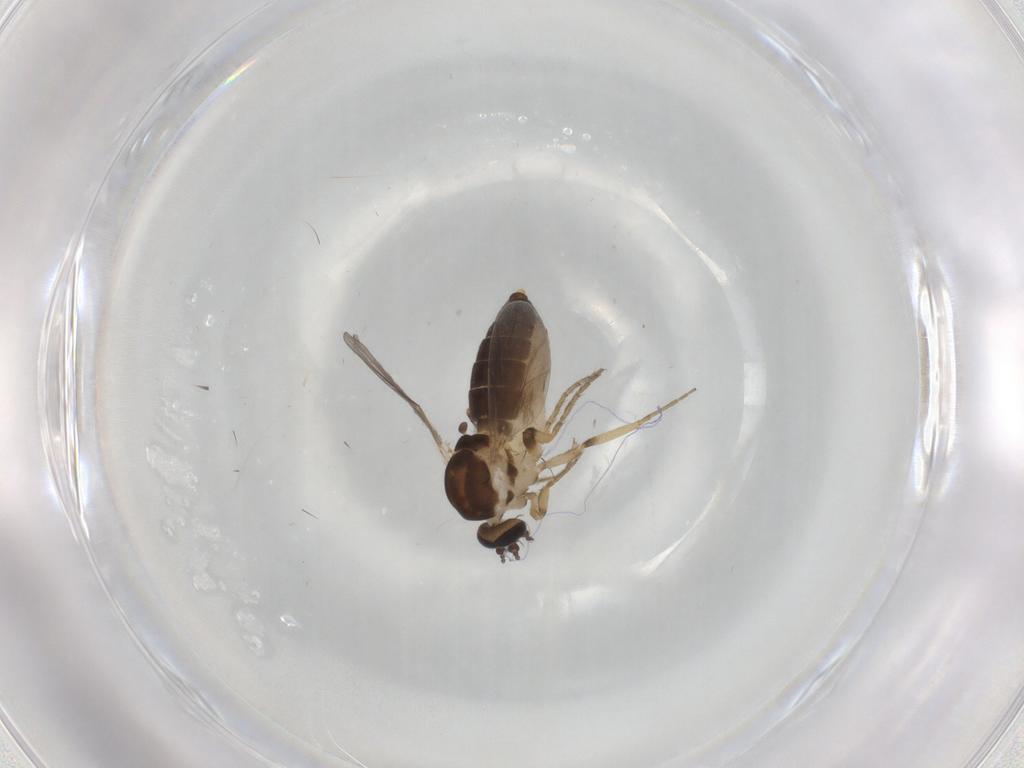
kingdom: Animalia
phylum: Arthropoda
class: Insecta
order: Diptera
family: Ceratopogonidae
